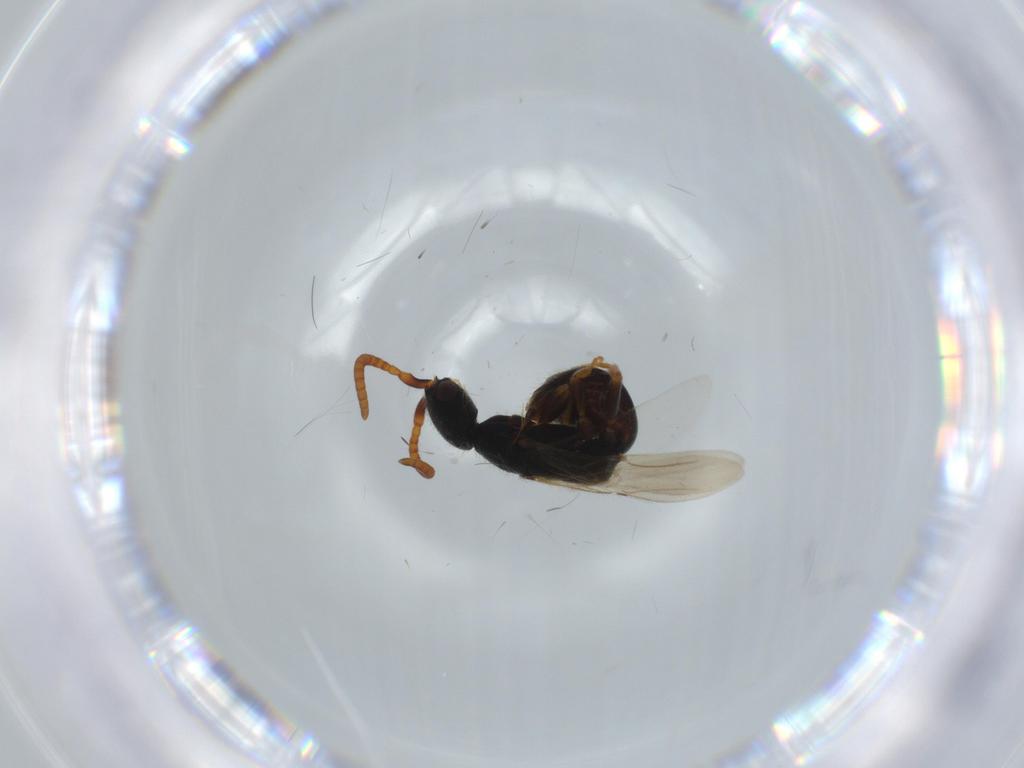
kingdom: Animalia
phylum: Arthropoda
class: Insecta
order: Hymenoptera
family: Bethylidae
